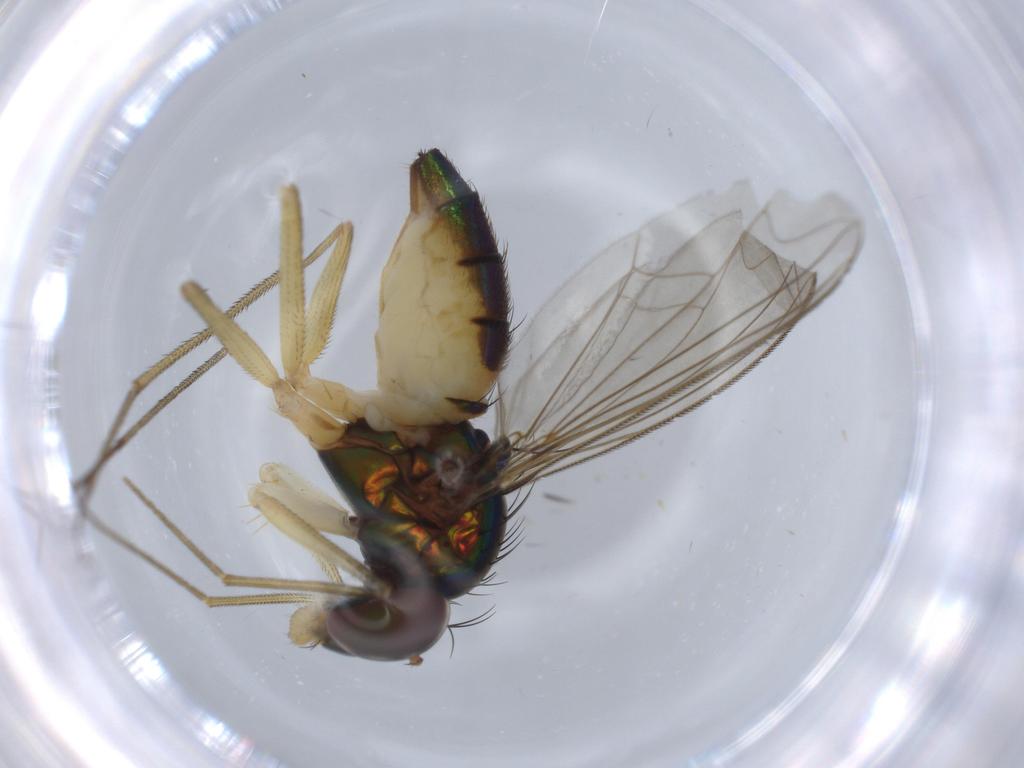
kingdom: Animalia
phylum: Arthropoda
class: Insecta
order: Diptera
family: Dolichopodidae
